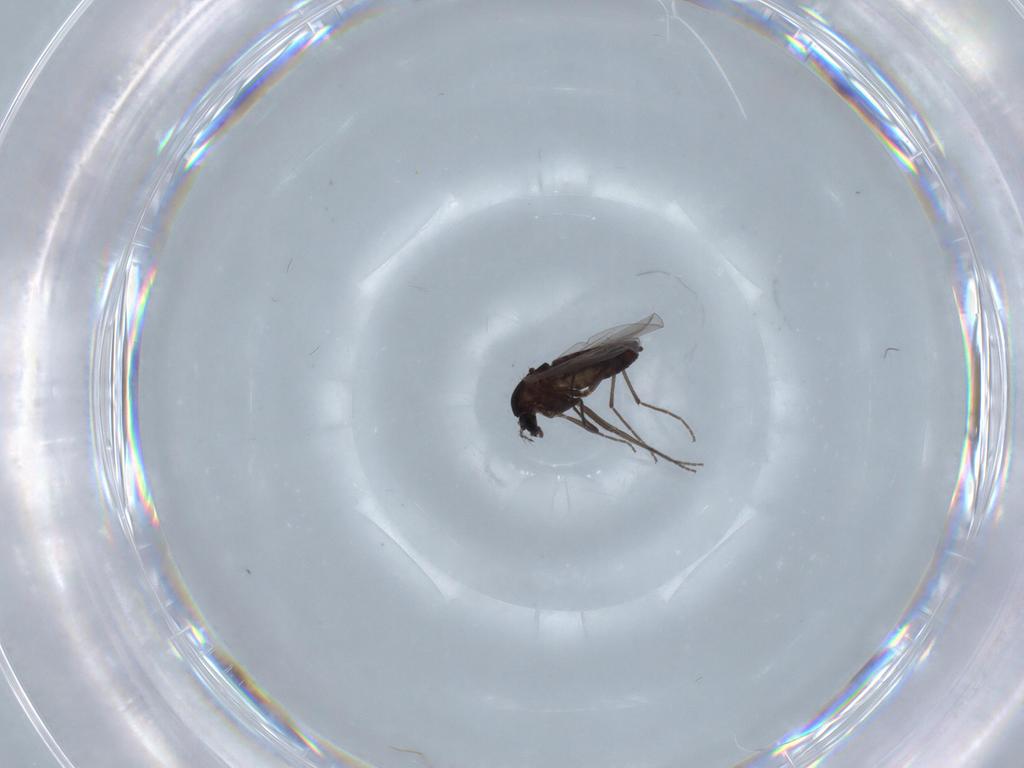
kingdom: Animalia
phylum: Arthropoda
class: Insecta
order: Diptera
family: Chironomidae
